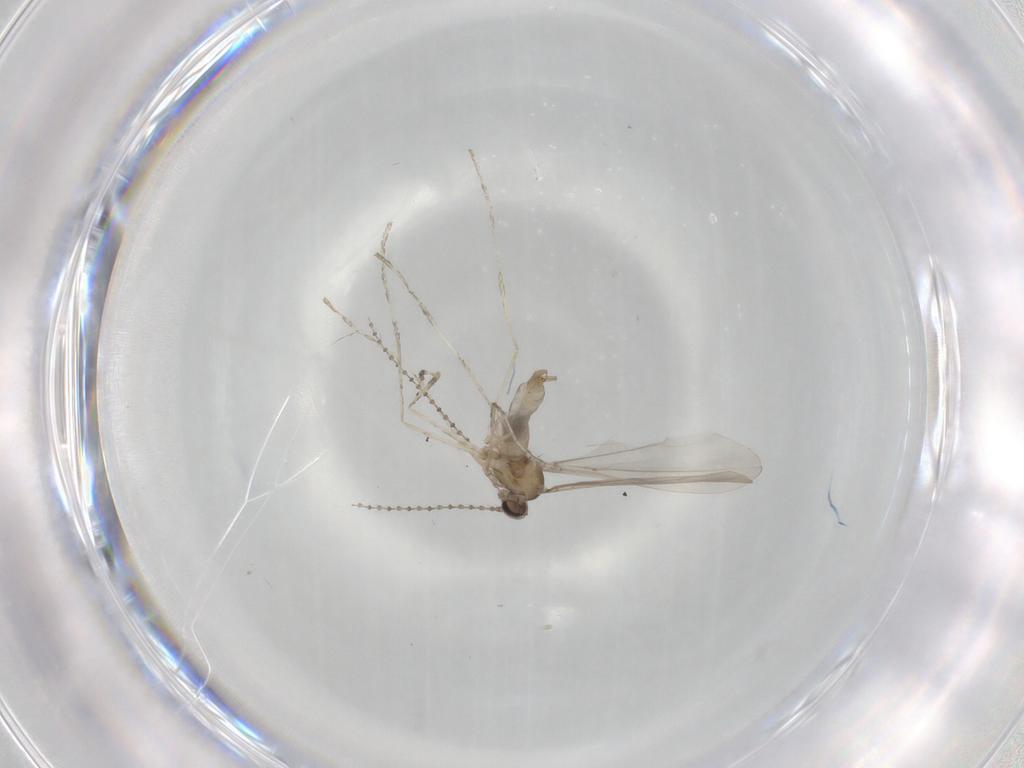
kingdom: Animalia
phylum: Arthropoda
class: Insecta
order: Diptera
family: Cecidomyiidae
